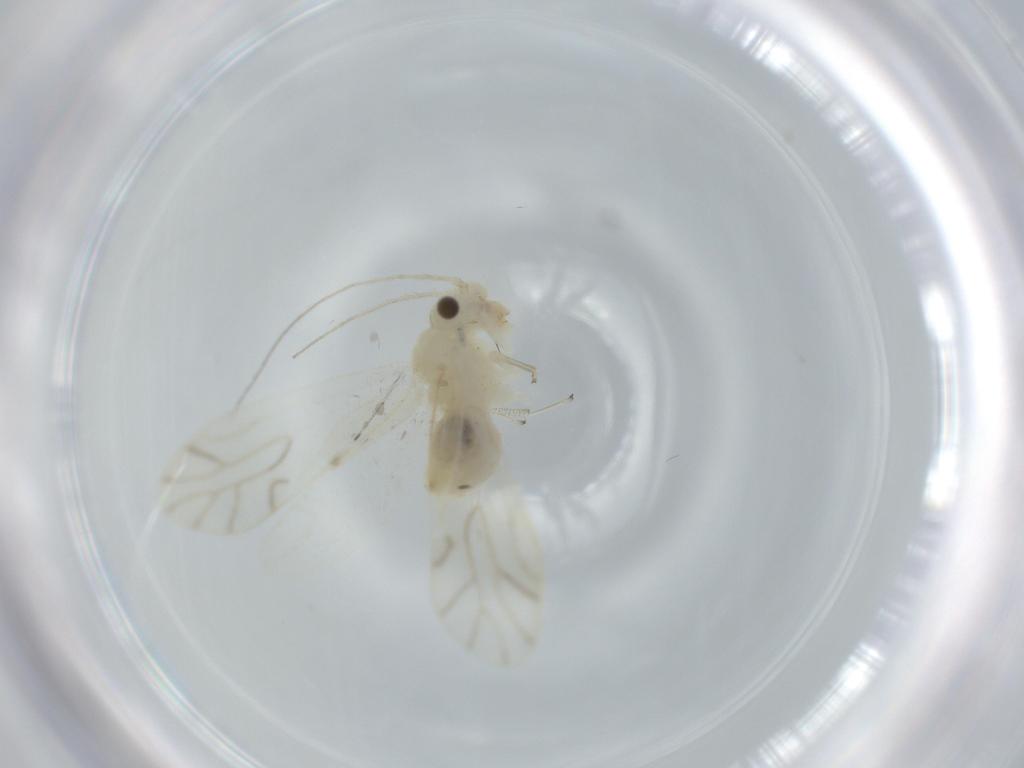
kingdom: Animalia
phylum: Arthropoda
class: Insecta
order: Psocodea
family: Caeciliusidae
